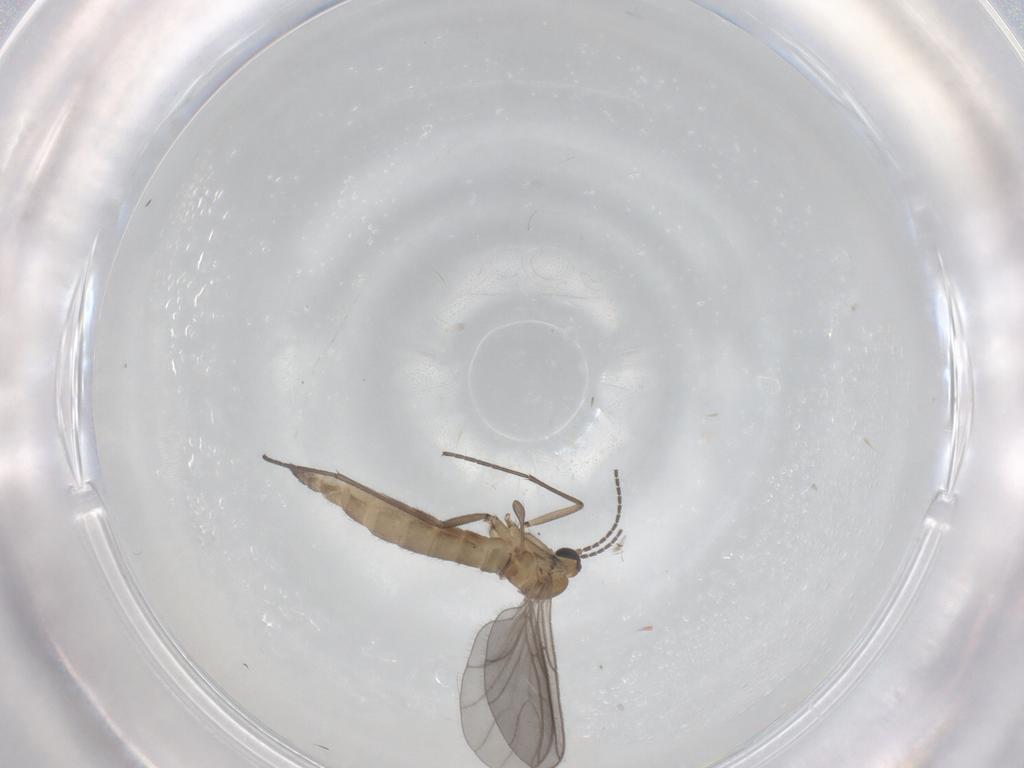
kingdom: Animalia
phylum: Arthropoda
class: Insecta
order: Diptera
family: Sciaridae
